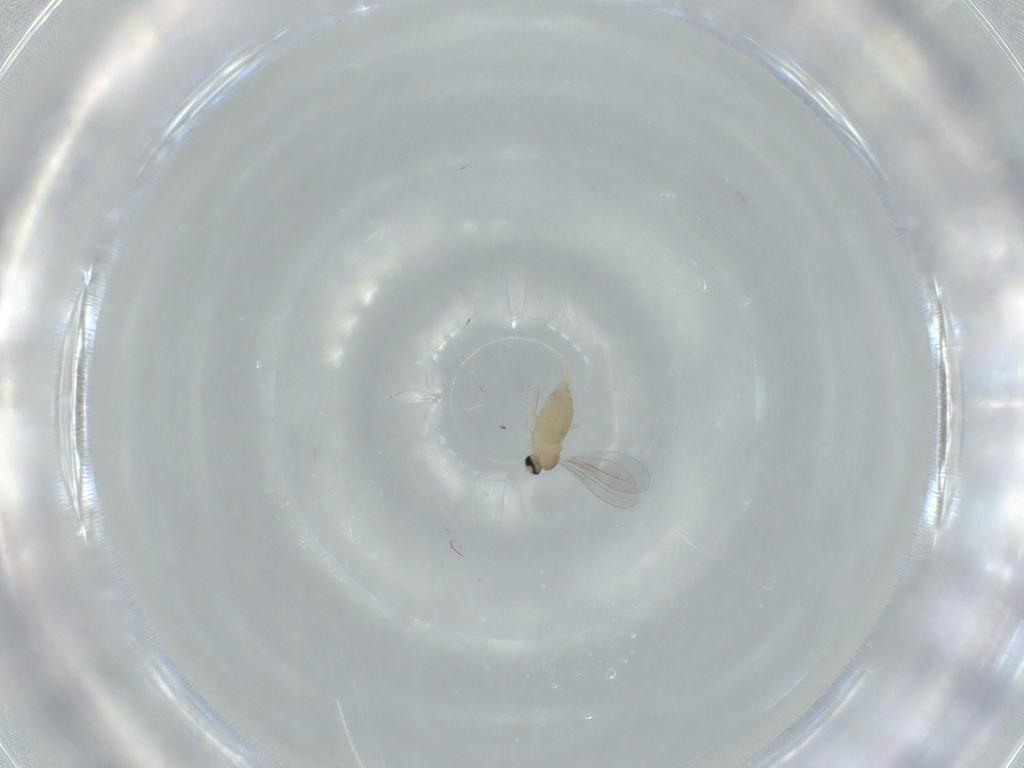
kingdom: Animalia
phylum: Arthropoda
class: Insecta
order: Diptera
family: Cecidomyiidae
